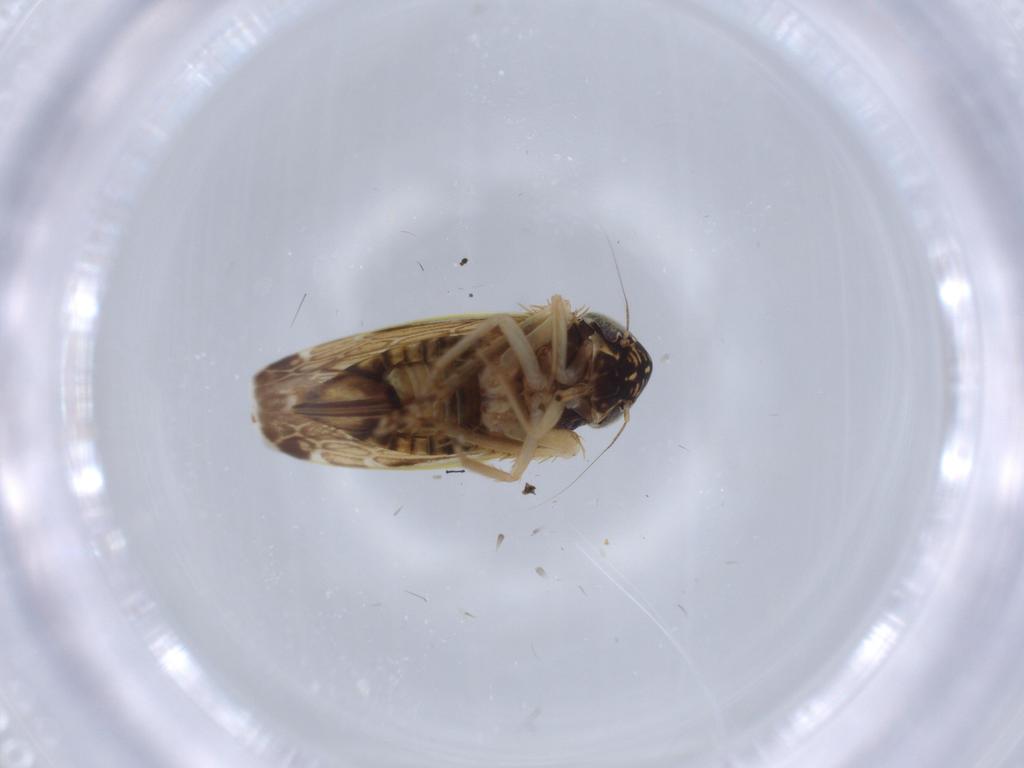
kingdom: Animalia
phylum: Arthropoda
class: Insecta
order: Hemiptera
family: Cicadellidae
